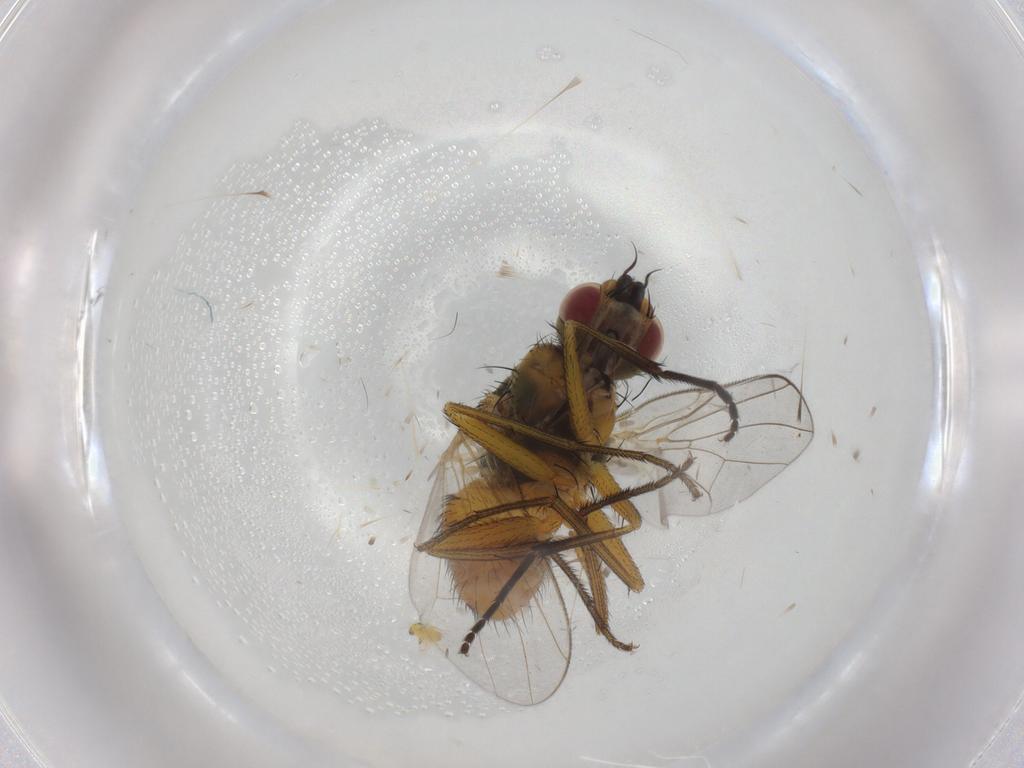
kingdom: Animalia
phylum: Arthropoda
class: Insecta
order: Diptera
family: Muscidae
